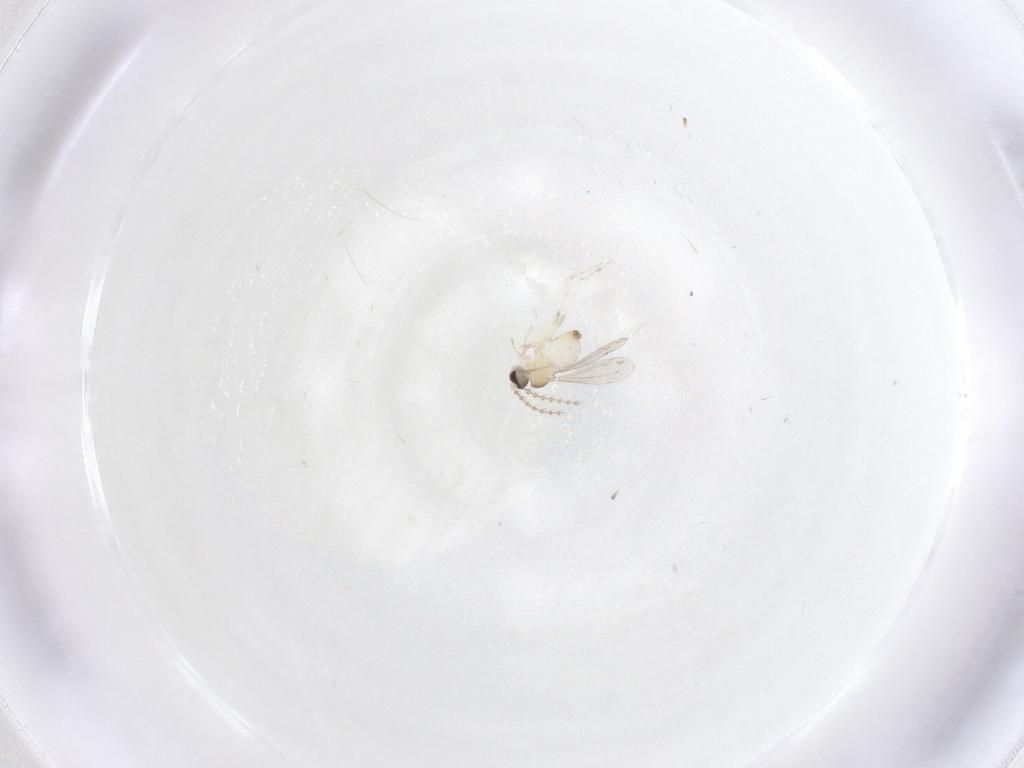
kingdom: Animalia
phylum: Arthropoda
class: Insecta
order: Diptera
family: Cecidomyiidae
